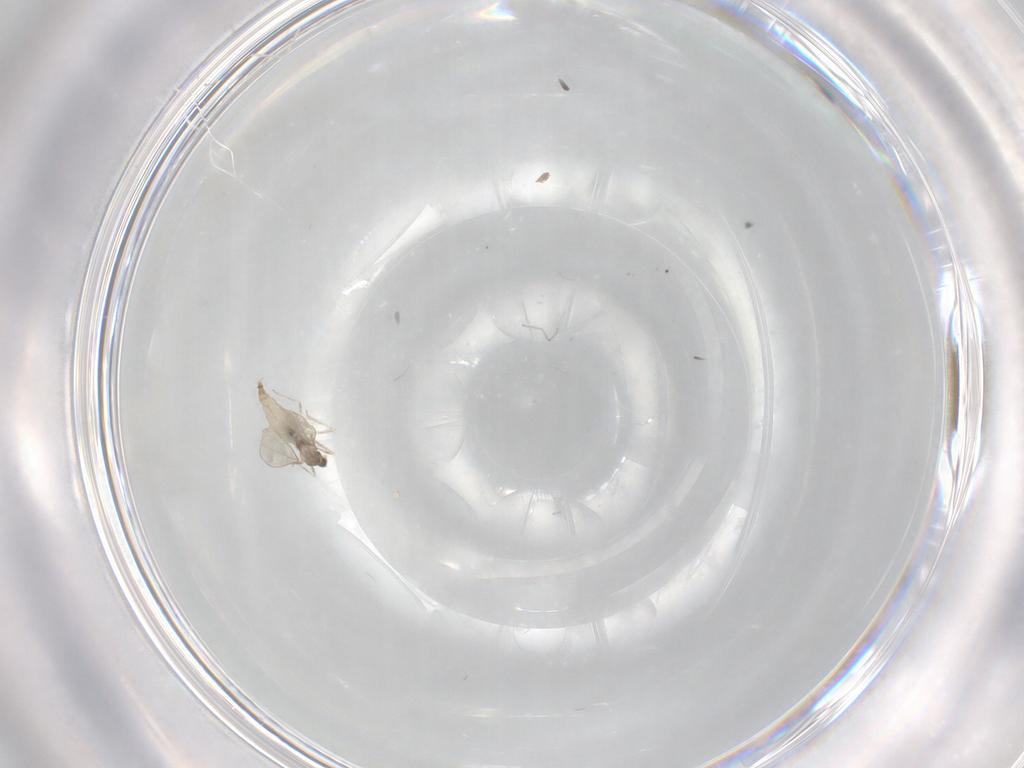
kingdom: Animalia
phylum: Arthropoda
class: Insecta
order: Diptera
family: Cecidomyiidae
